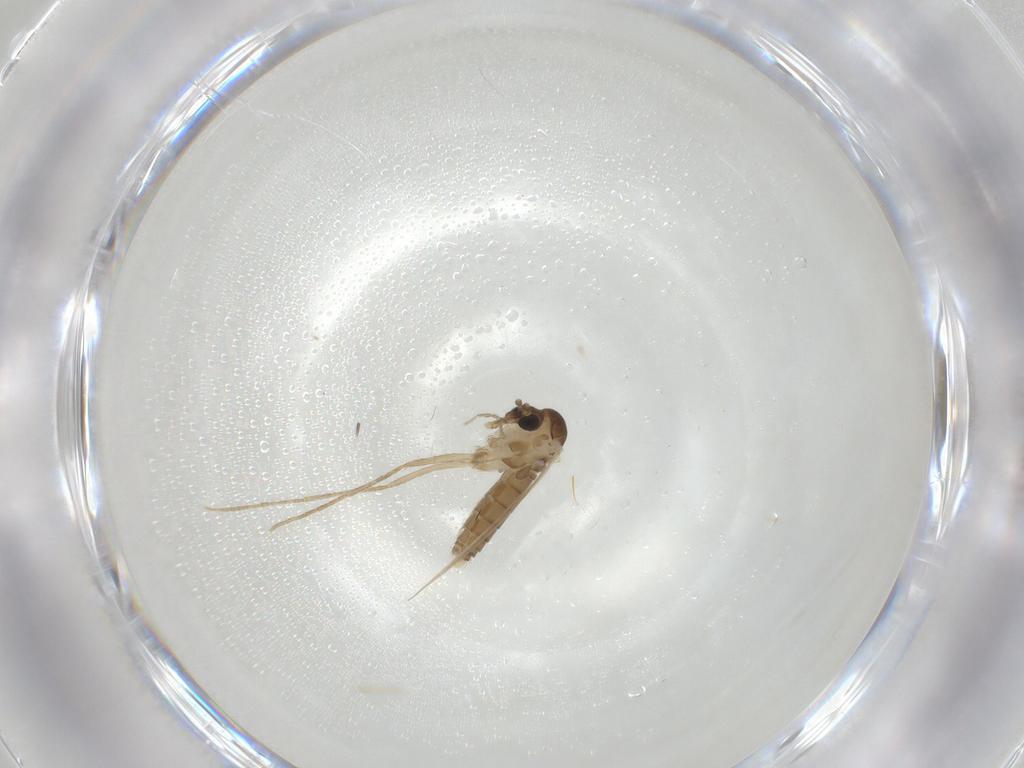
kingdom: Animalia
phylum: Arthropoda
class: Insecta
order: Diptera
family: Psychodidae
